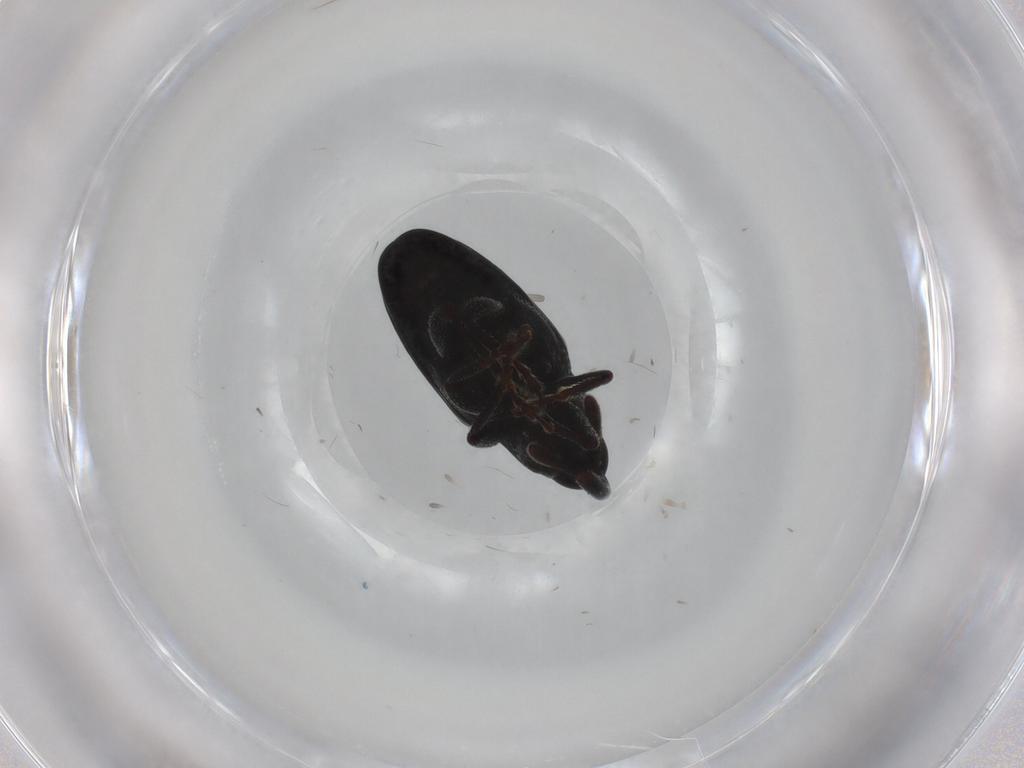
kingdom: Animalia
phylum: Arthropoda
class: Insecta
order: Coleoptera
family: Curculionidae
